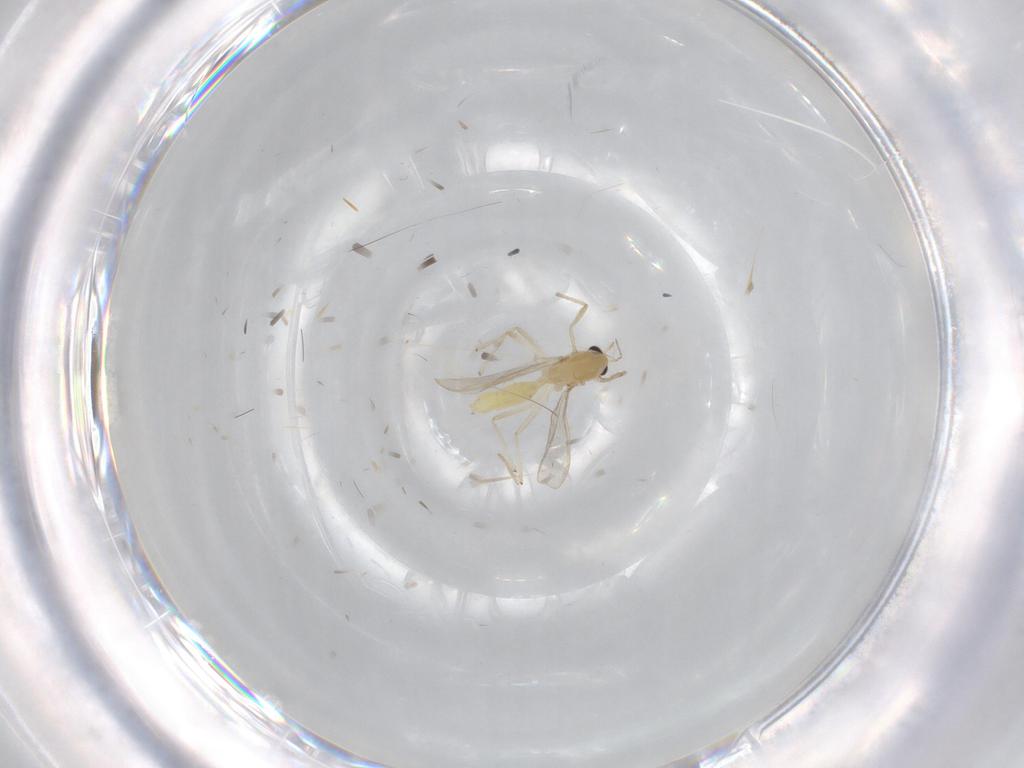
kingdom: Animalia
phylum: Arthropoda
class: Insecta
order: Diptera
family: Chironomidae
